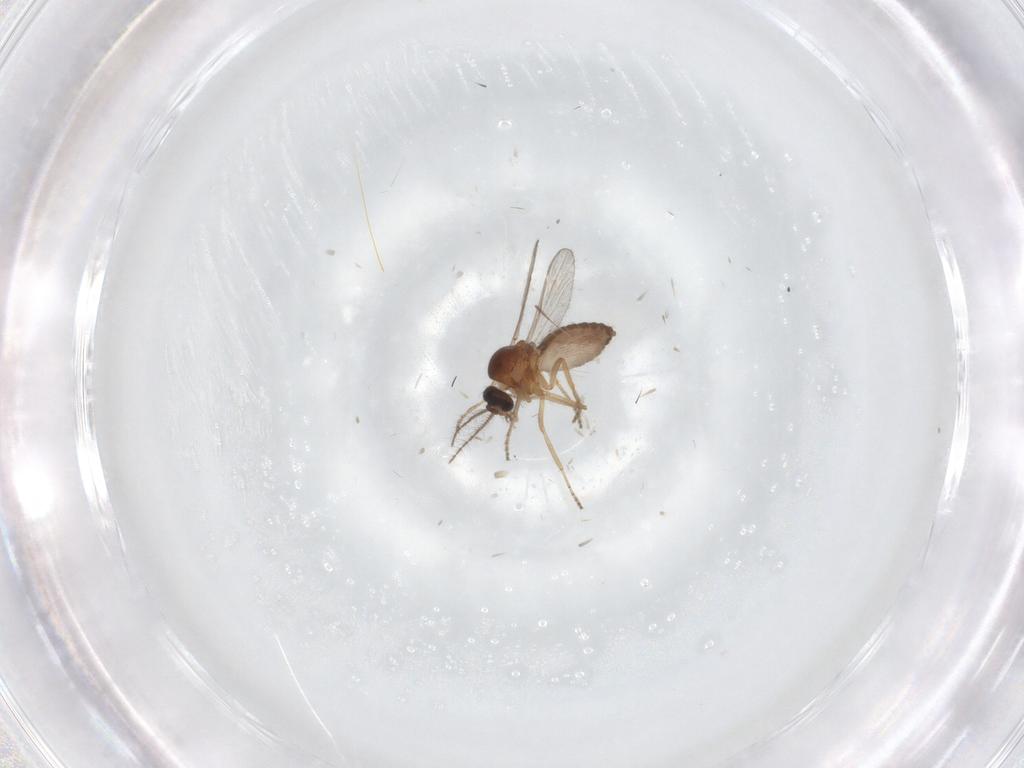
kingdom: Animalia
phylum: Arthropoda
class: Insecta
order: Diptera
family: Ceratopogonidae
